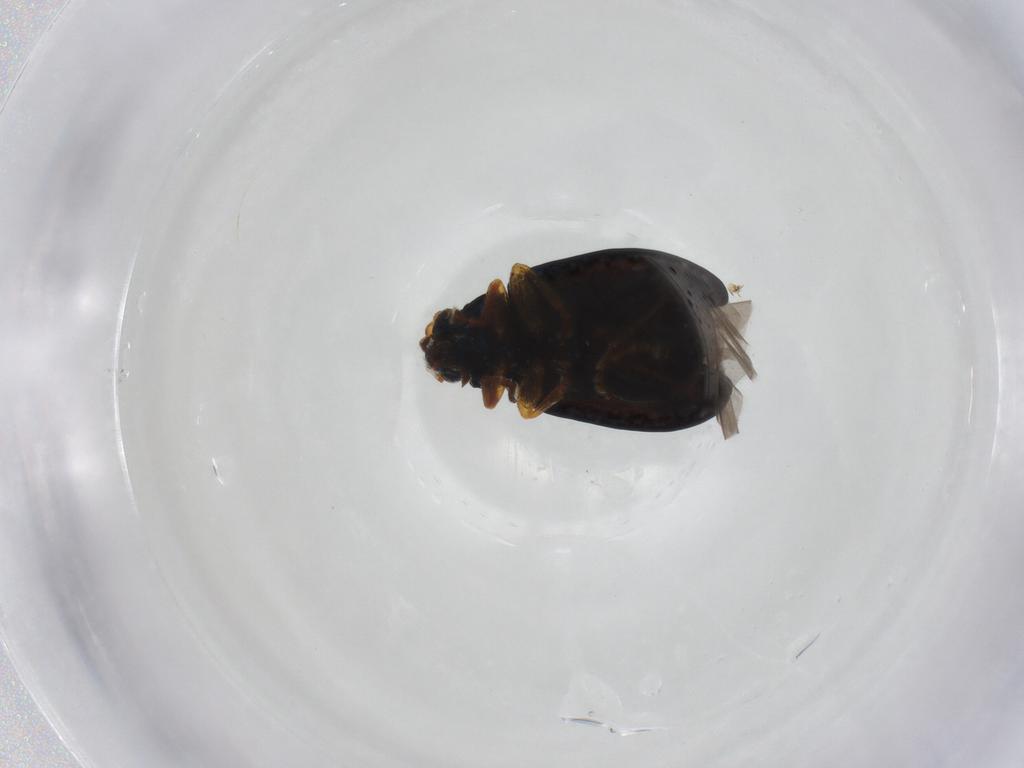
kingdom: Animalia
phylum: Arthropoda
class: Insecta
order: Coleoptera
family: Chrysomelidae
